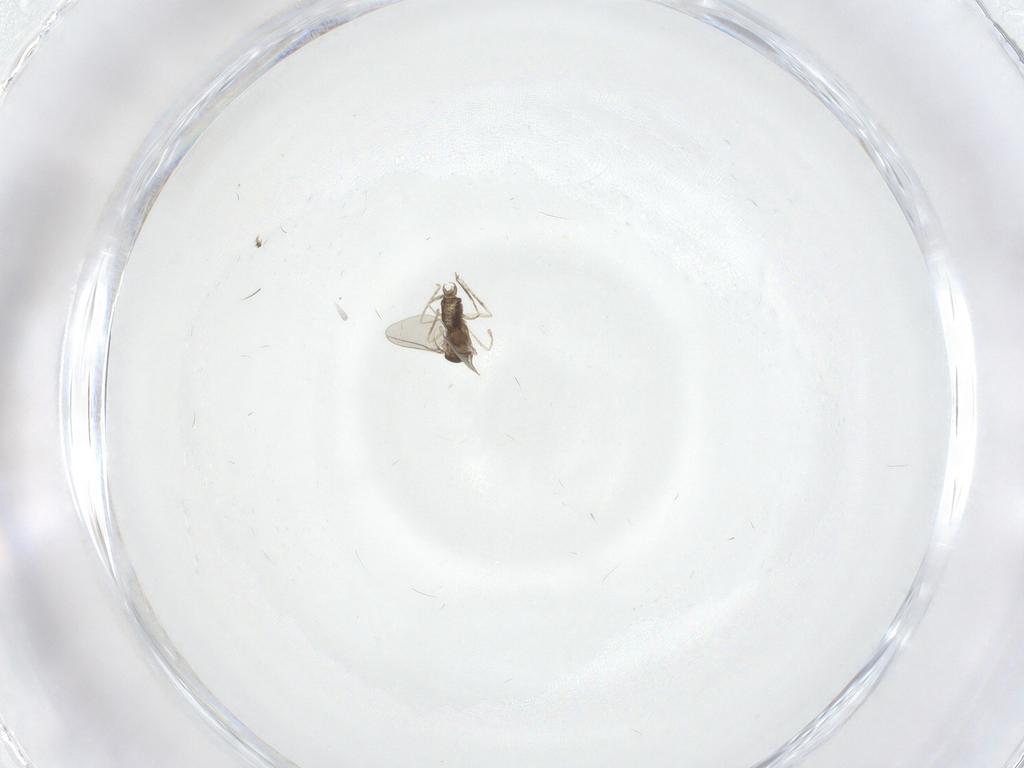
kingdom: Animalia
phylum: Arthropoda
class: Insecta
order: Diptera
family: Cecidomyiidae
